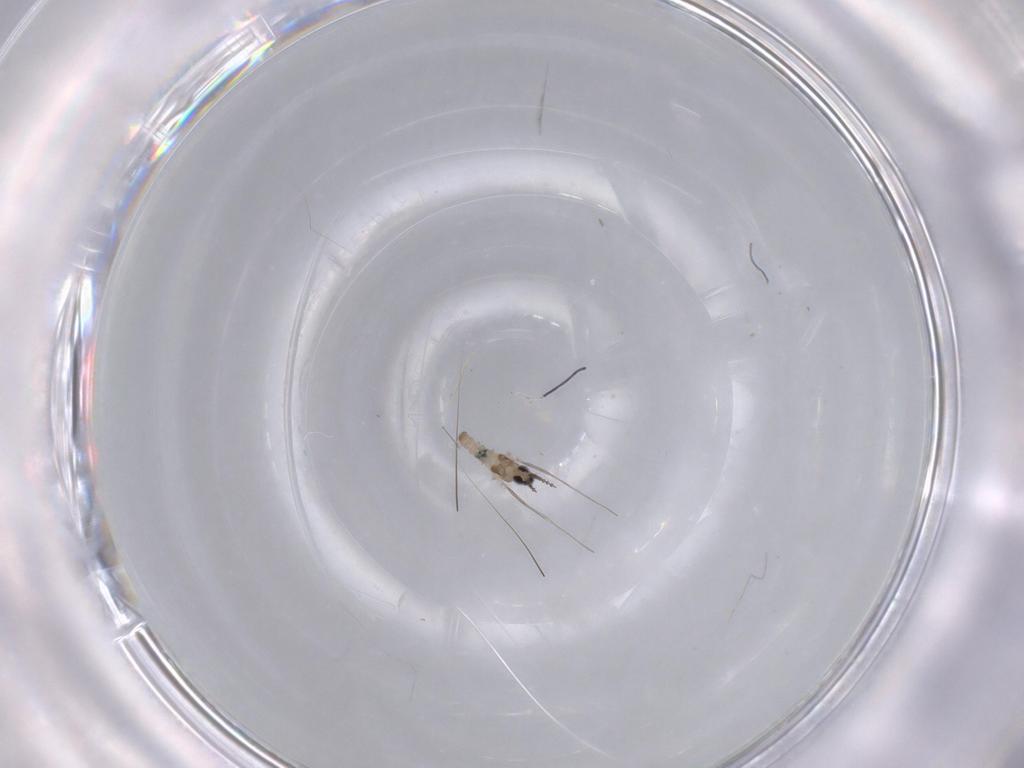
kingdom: Animalia
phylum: Arthropoda
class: Insecta
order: Diptera
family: Cecidomyiidae
